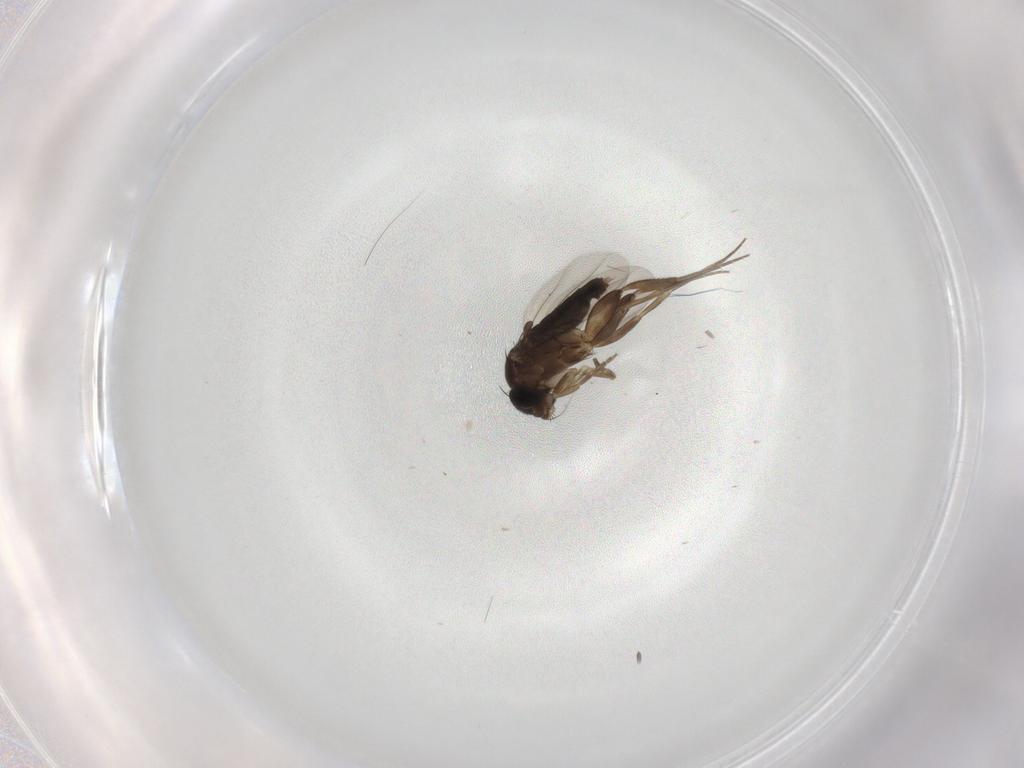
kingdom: Animalia
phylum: Arthropoda
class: Insecta
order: Diptera
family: Phoridae
